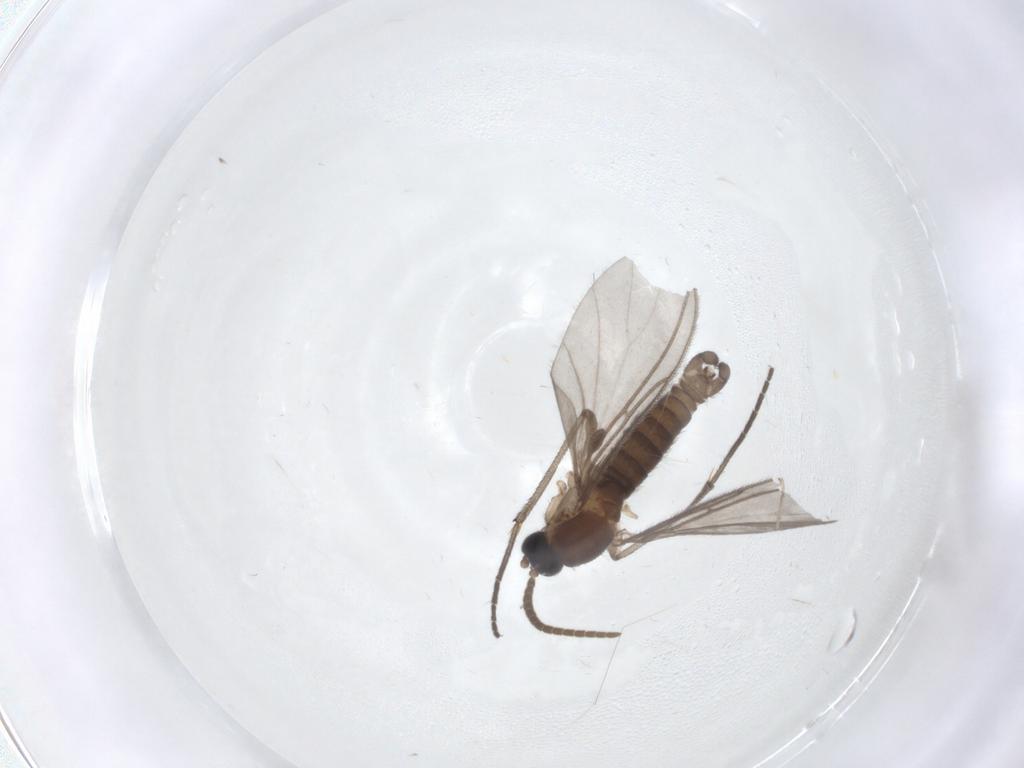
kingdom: Animalia
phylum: Arthropoda
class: Insecta
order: Diptera
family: Cecidomyiidae
